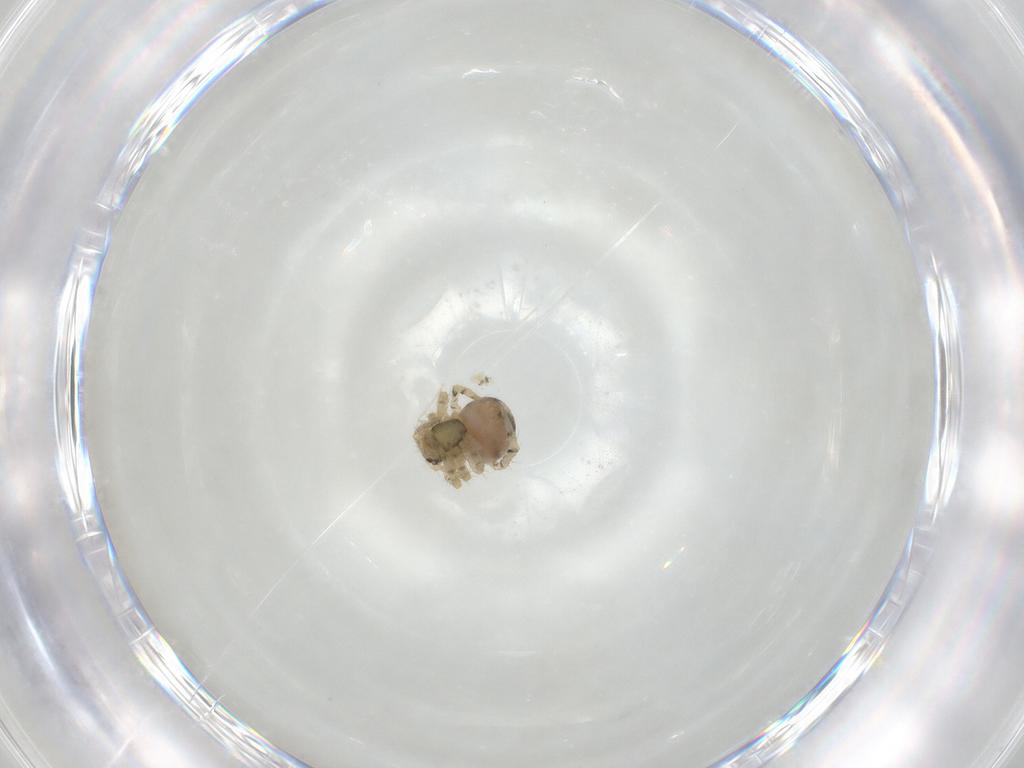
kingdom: Animalia
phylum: Arthropoda
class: Arachnida
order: Araneae
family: Theridiidae
